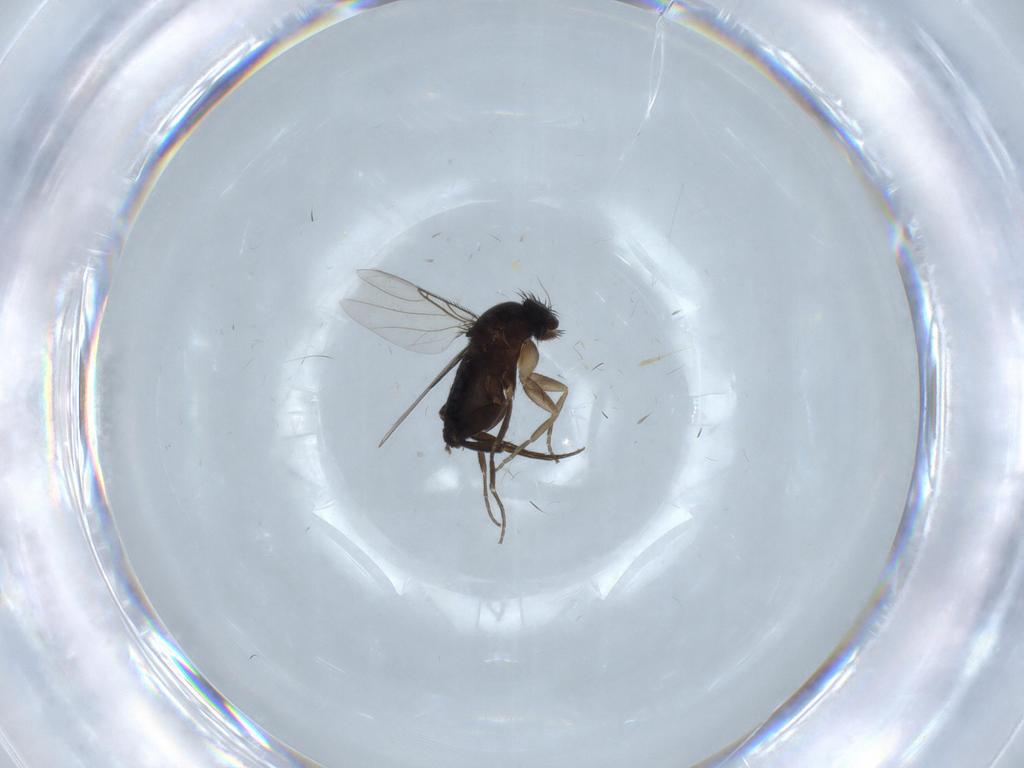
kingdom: Animalia
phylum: Arthropoda
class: Insecta
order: Diptera
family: Phoridae
